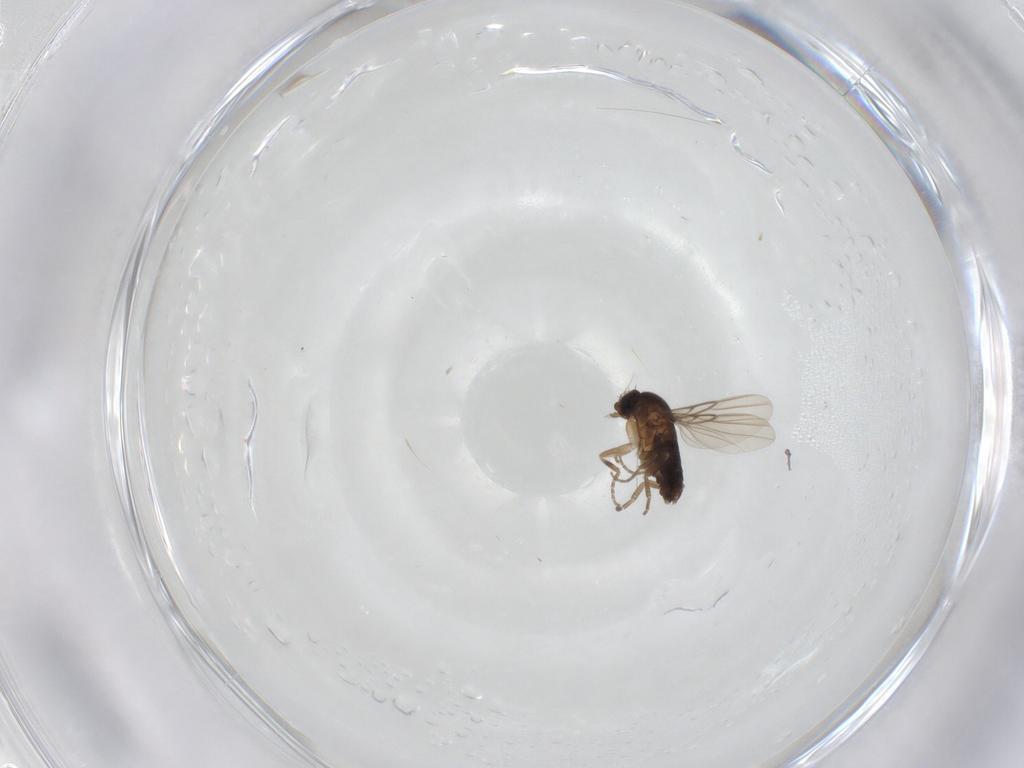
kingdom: Animalia
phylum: Arthropoda
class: Insecta
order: Diptera
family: Phoridae
